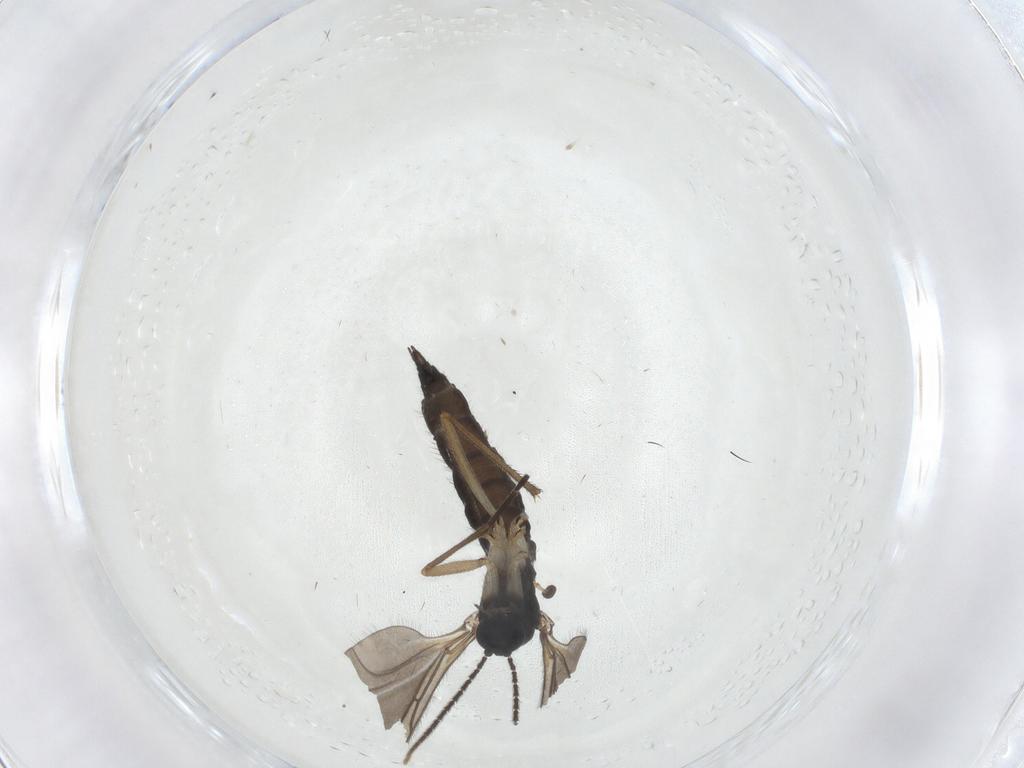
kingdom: Animalia
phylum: Arthropoda
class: Insecta
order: Diptera
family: Sciaridae
